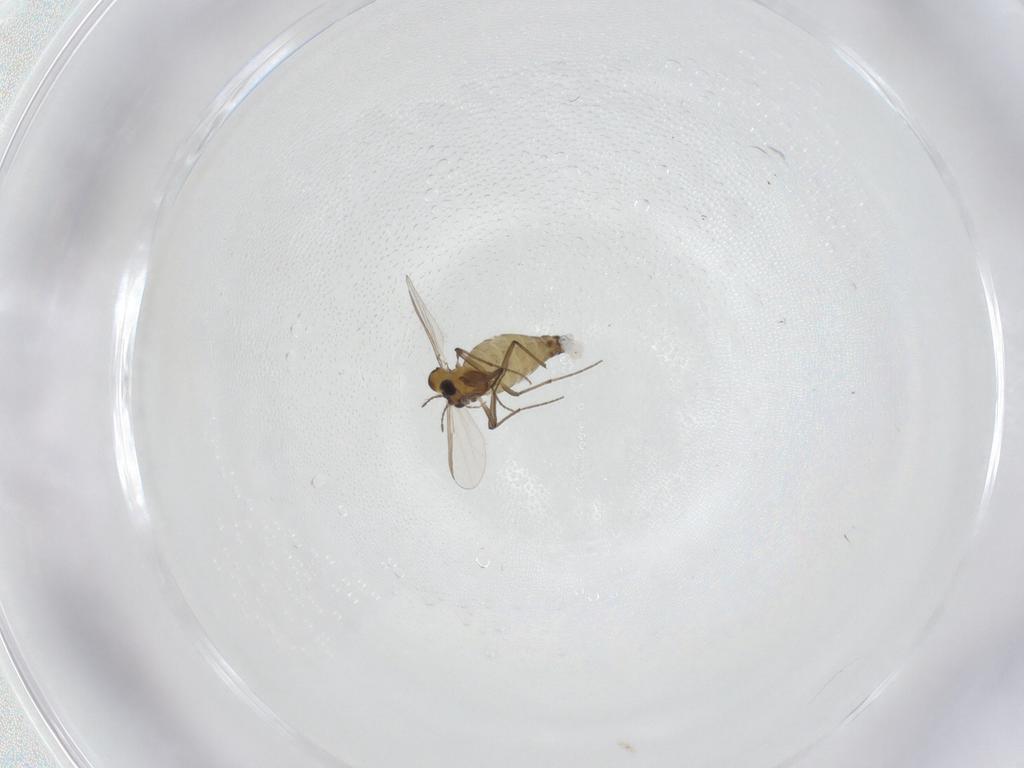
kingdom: Animalia
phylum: Arthropoda
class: Insecta
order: Diptera
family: Chironomidae
